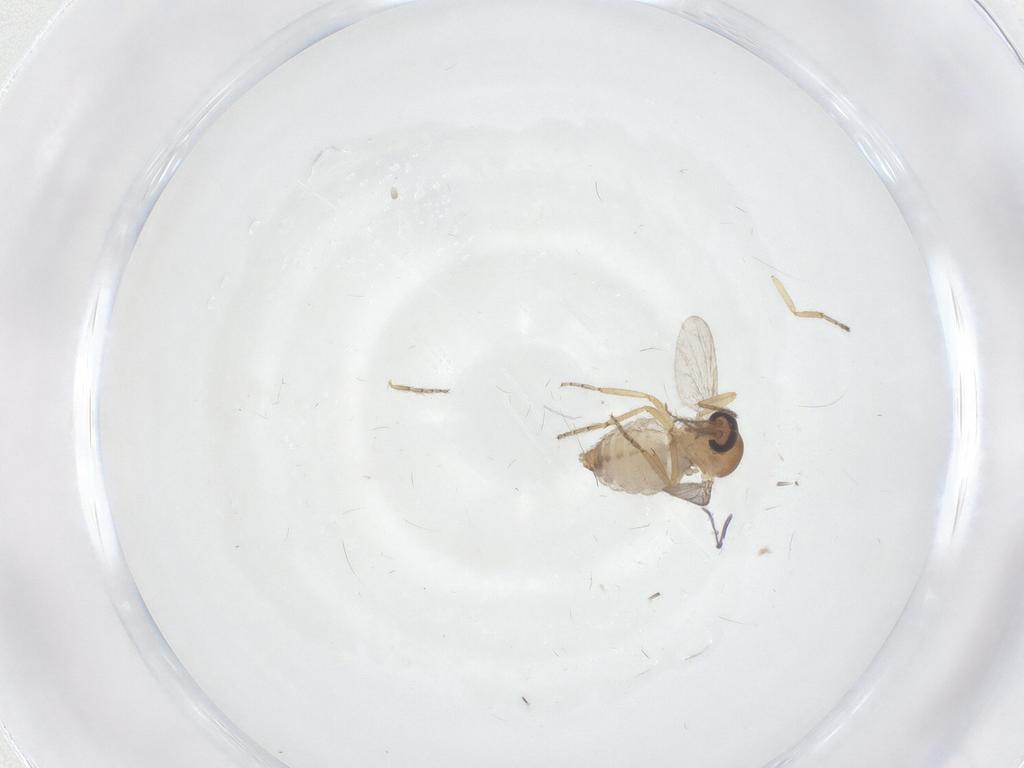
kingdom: Animalia
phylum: Arthropoda
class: Insecta
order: Diptera
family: Ceratopogonidae
